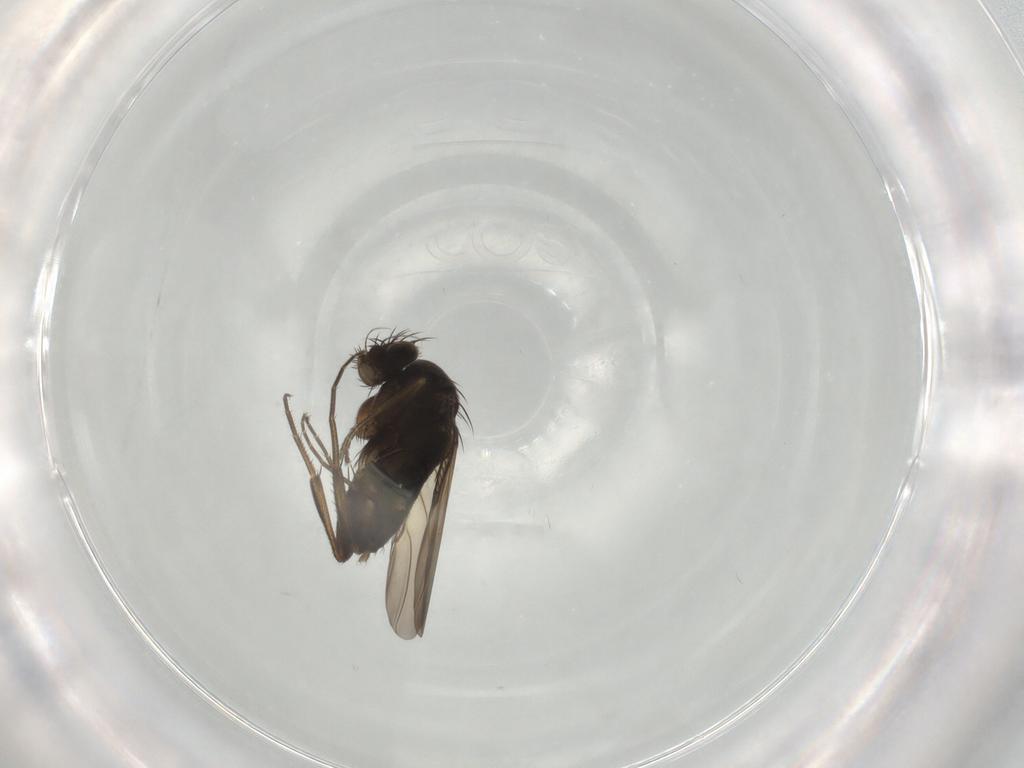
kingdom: Animalia
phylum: Arthropoda
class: Insecta
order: Diptera
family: Phoridae
